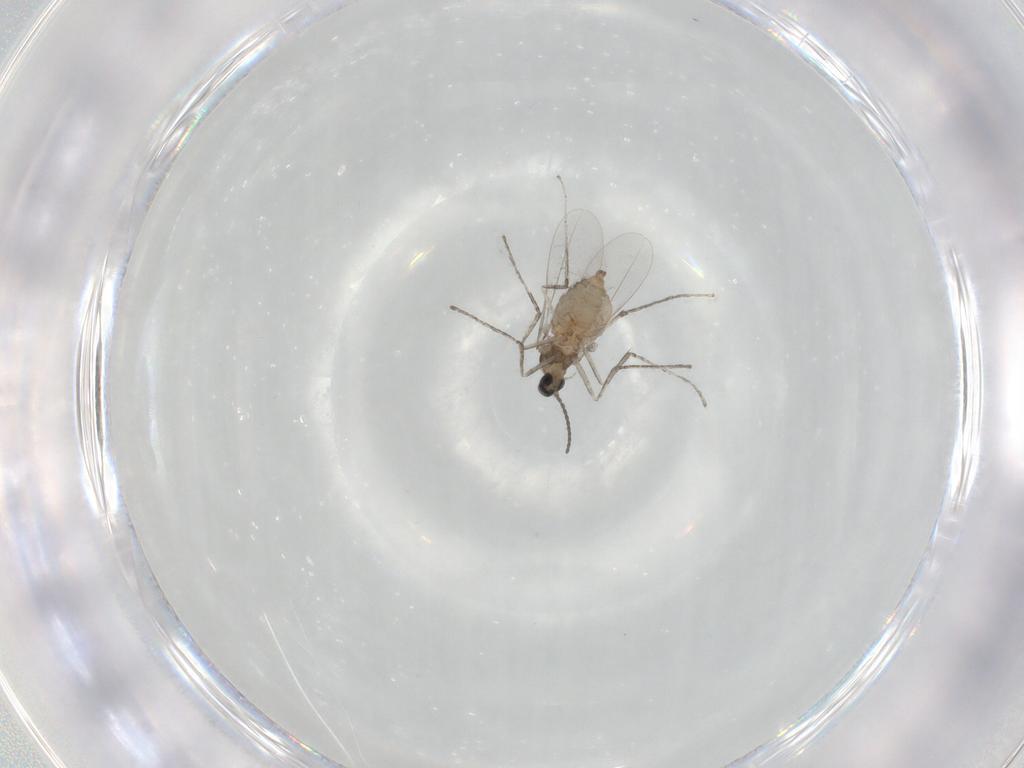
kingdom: Animalia
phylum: Arthropoda
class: Insecta
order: Diptera
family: Cecidomyiidae
